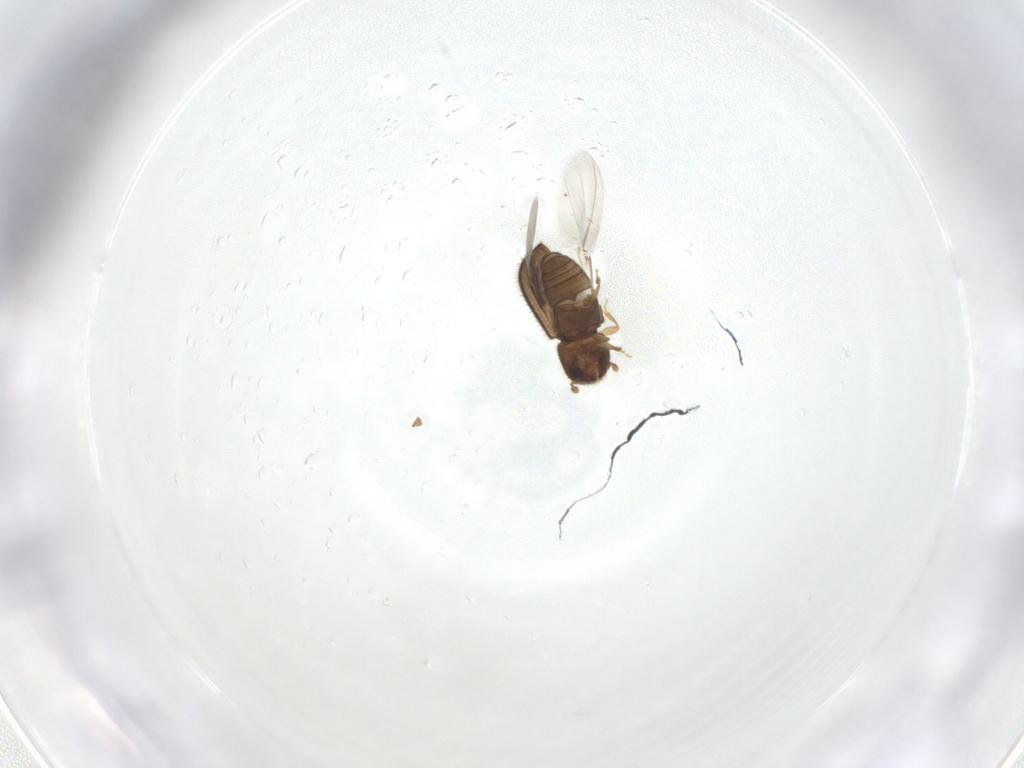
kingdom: Animalia
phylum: Arthropoda
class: Insecta
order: Coleoptera
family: Curculionidae
